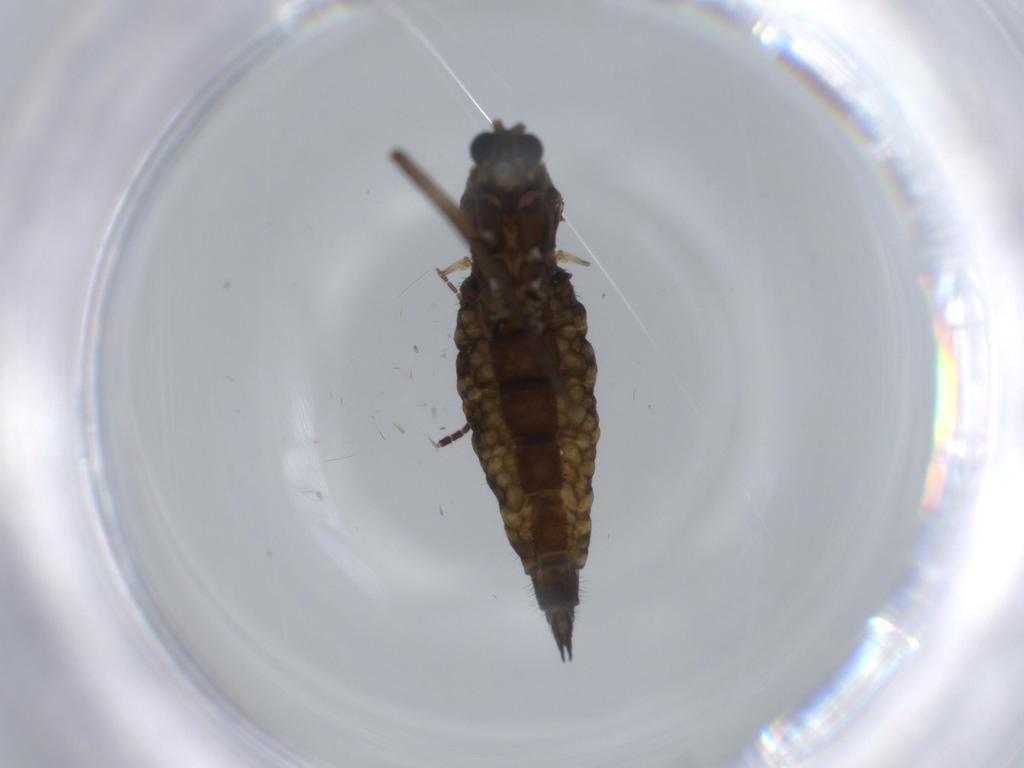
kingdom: Animalia
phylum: Arthropoda
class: Insecta
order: Diptera
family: Sciaridae
